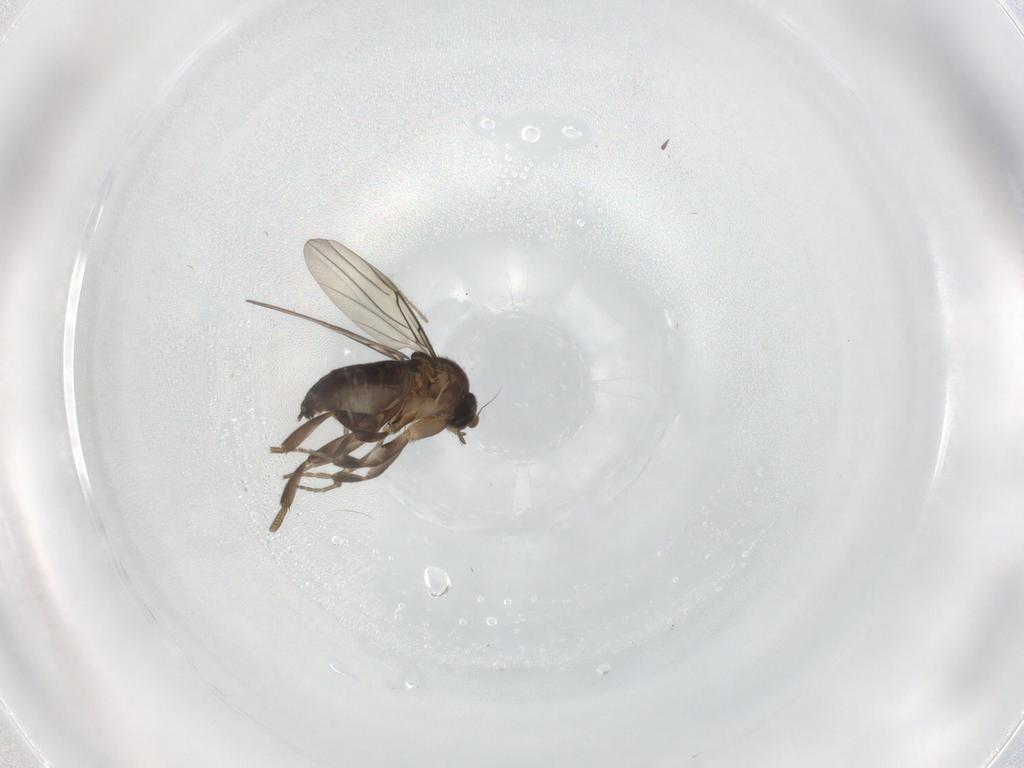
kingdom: Animalia
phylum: Arthropoda
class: Insecta
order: Diptera
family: Phoridae
